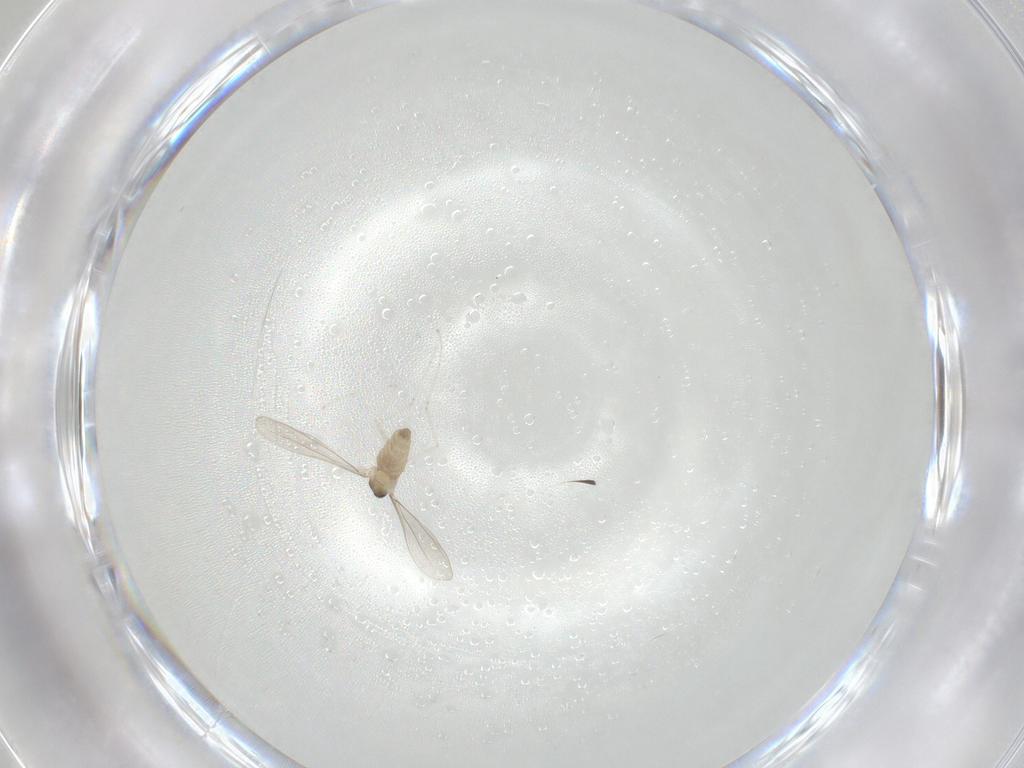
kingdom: Animalia
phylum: Arthropoda
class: Insecta
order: Diptera
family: Cecidomyiidae
